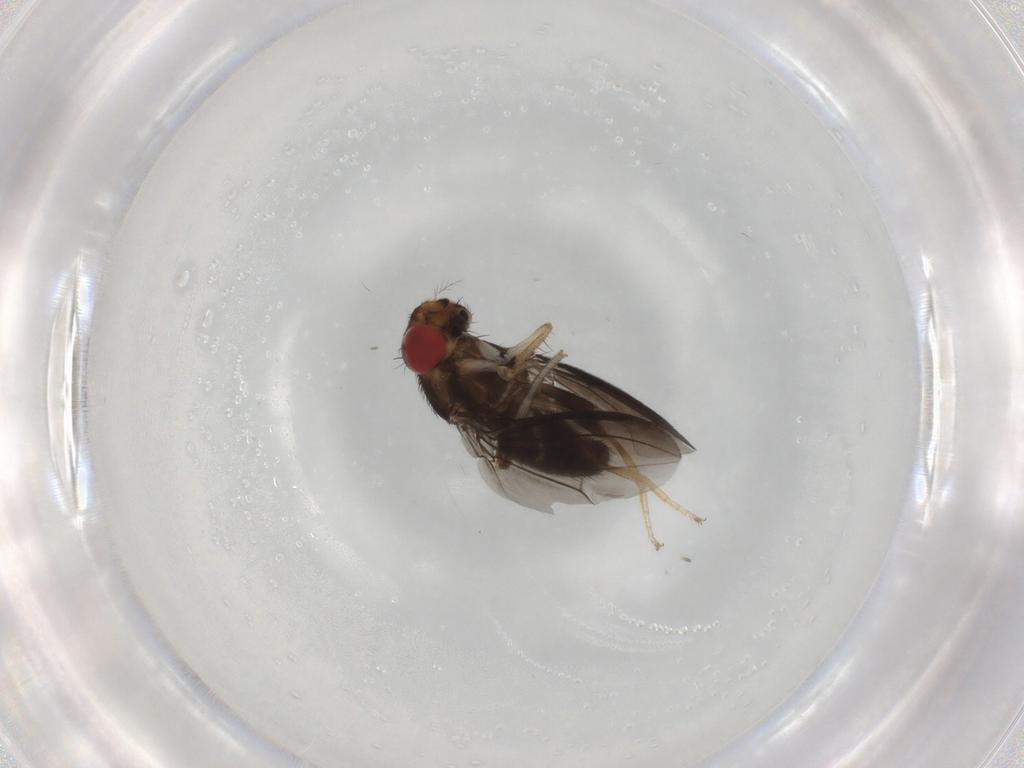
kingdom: Animalia
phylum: Arthropoda
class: Insecta
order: Diptera
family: Drosophilidae
